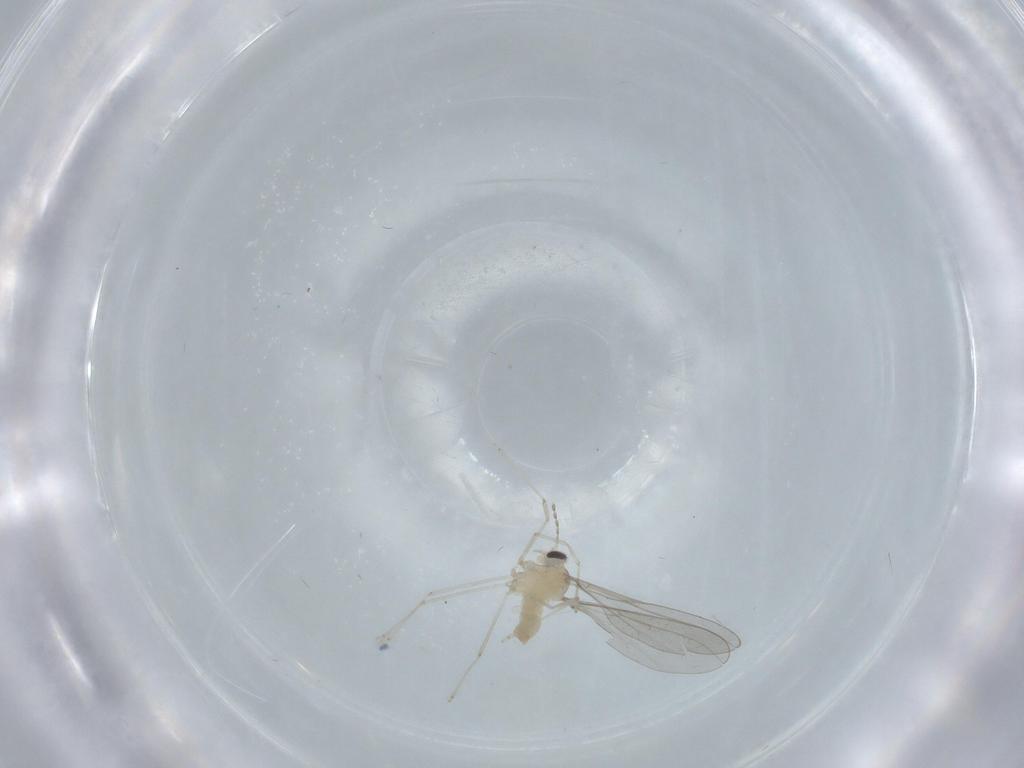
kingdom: Animalia
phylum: Arthropoda
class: Insecta
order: Diptera
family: Cecidomyiidae
